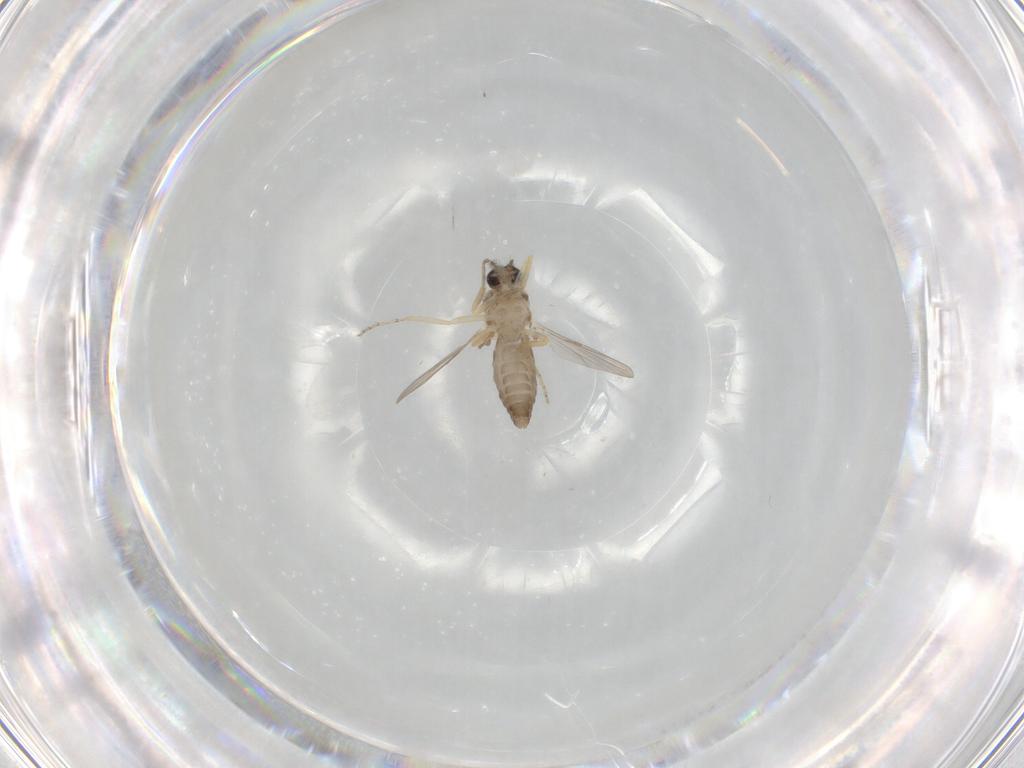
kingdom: Animalia
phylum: Arthropoda
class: Insecta
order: Diptera
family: Ceratopogonidae
